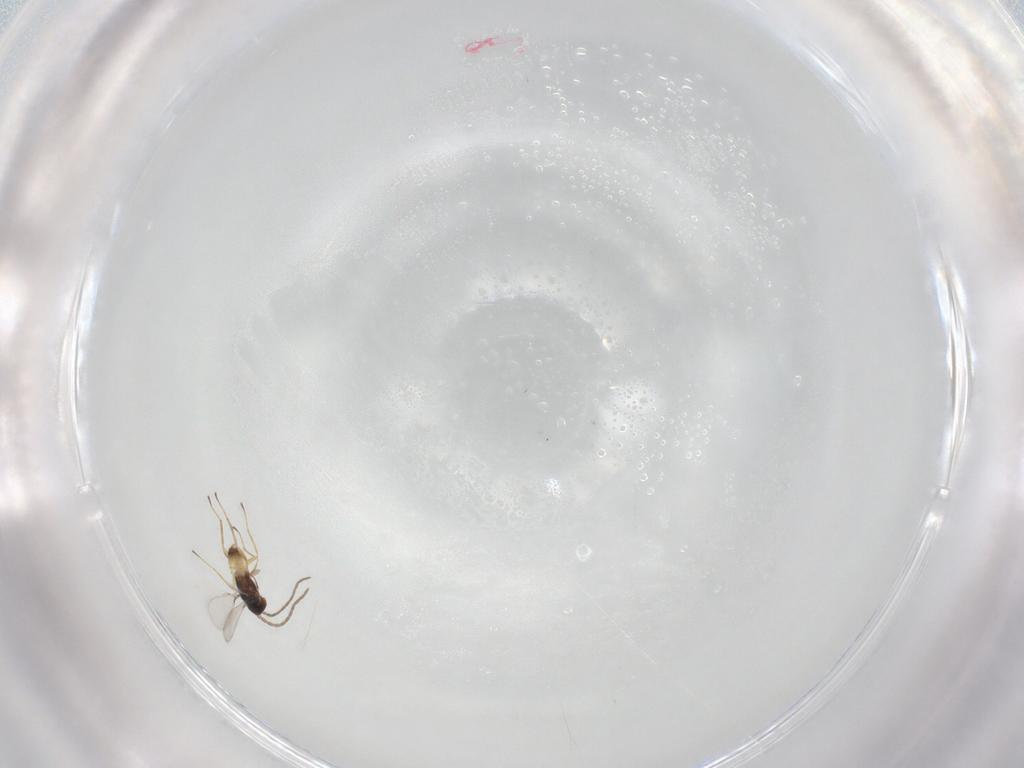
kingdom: Animalia
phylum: Arthropoda
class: Insecta
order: Hymenoptera
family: Mymaridae
